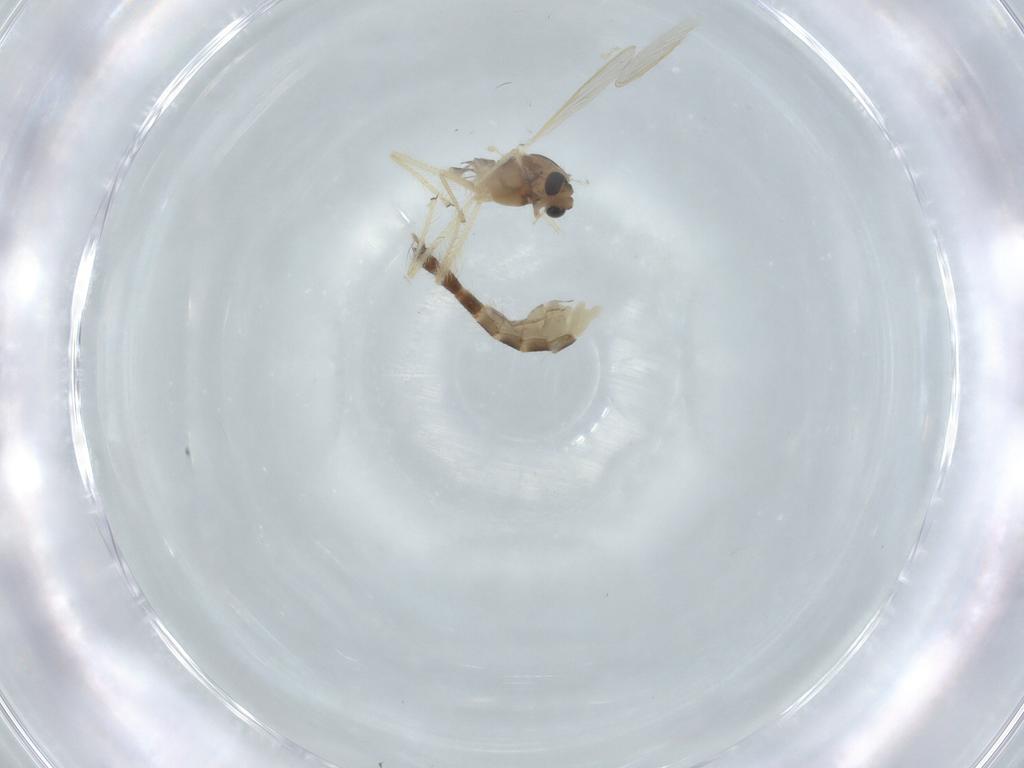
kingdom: Animalia
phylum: Arthropoda
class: Insecta
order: Diptera
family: Chironomidae
